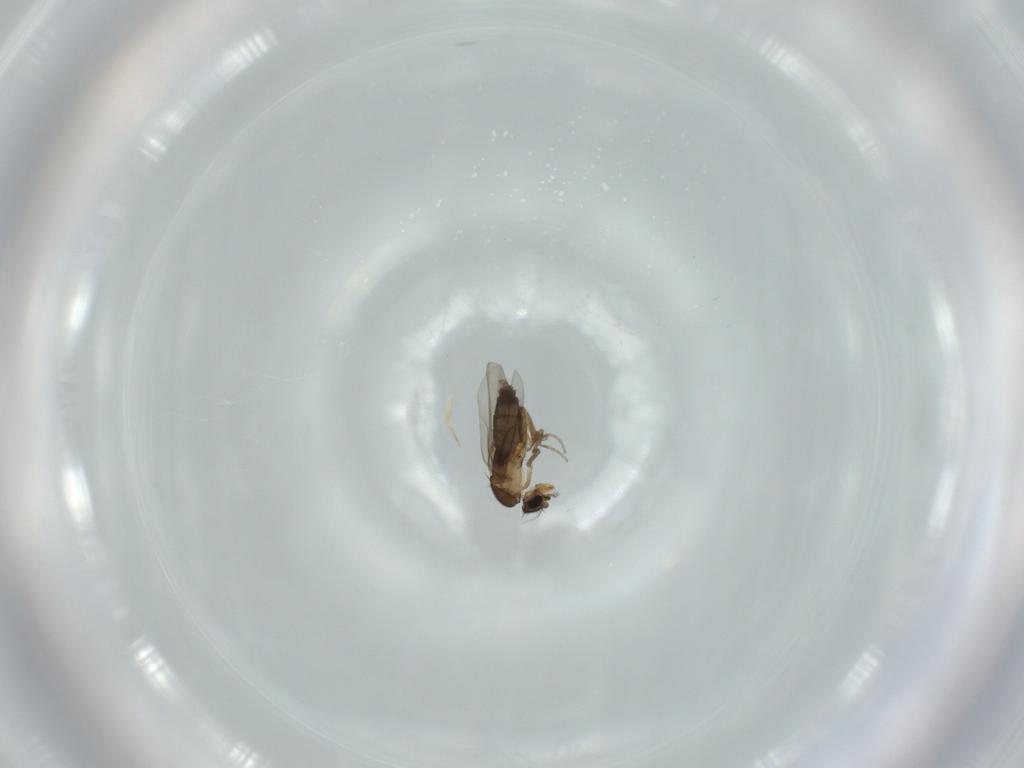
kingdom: Animalia
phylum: Arthropoda
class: Insecta
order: Diptera
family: Phoridae
